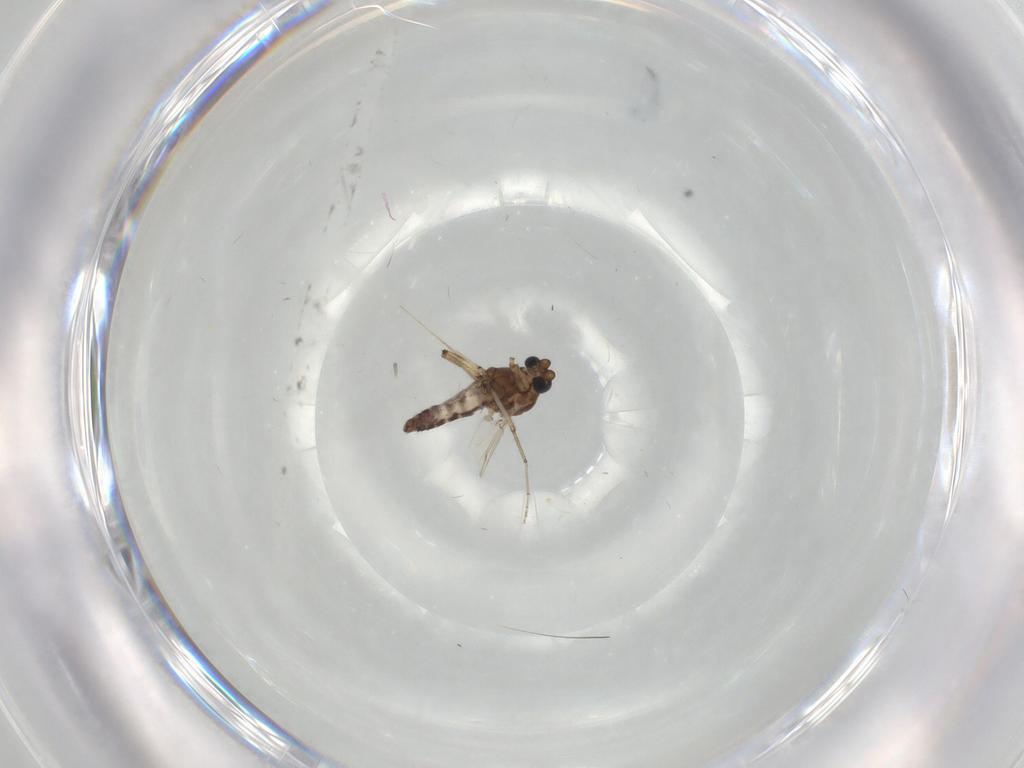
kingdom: Animalia
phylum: Arthropoda
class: Insecta
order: Diptera
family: Ceratopogonidae
